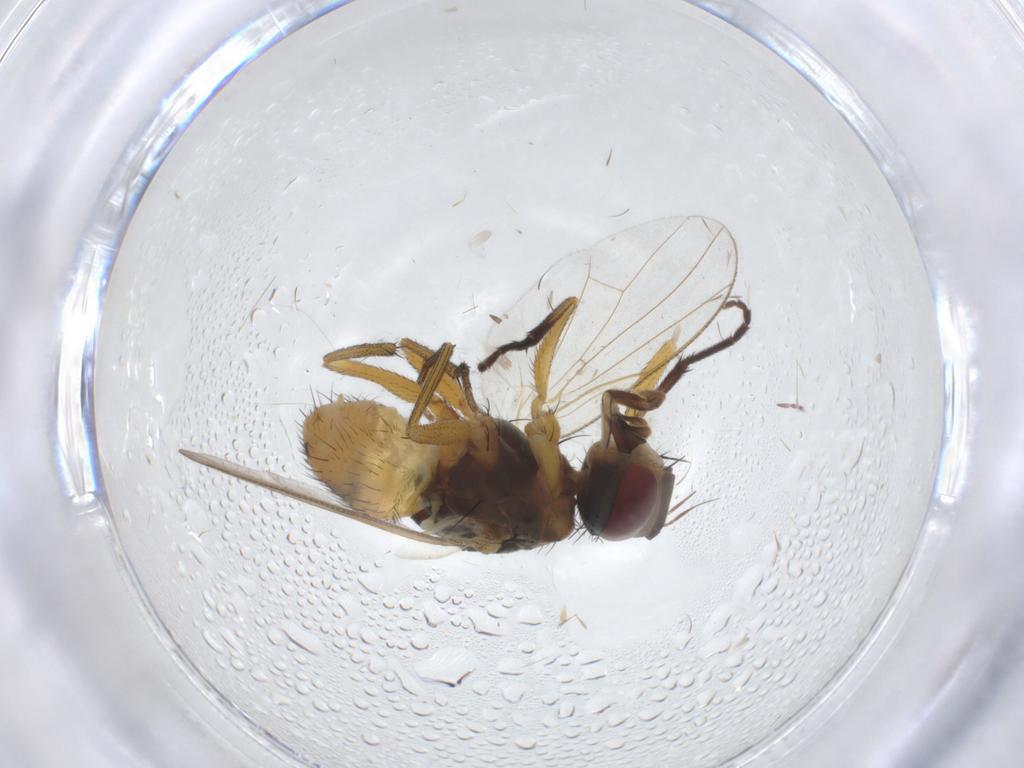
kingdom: Animalia
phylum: Arthropoda
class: Insecta
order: Diptera
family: Muscidae
